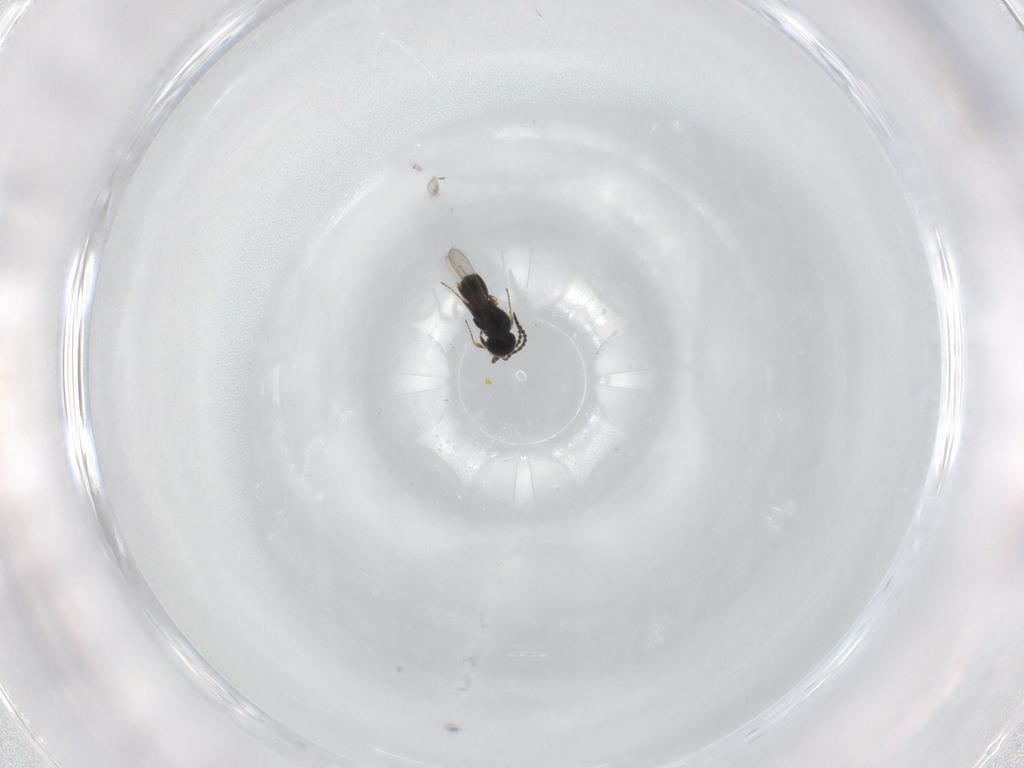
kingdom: Animalia
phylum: Arthropoda
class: Insecta
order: Hymenoptera
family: Scelionidae
